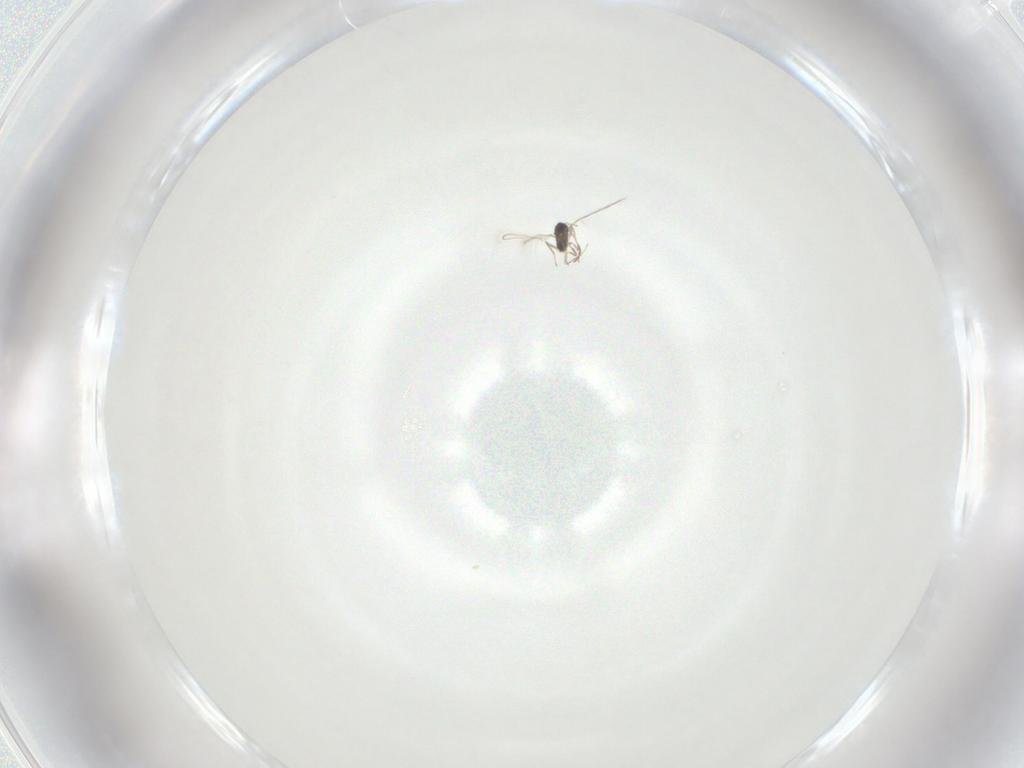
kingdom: Animalia
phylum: Arthropoda
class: Insecta
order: Hymenoptera
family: Mymaridae
